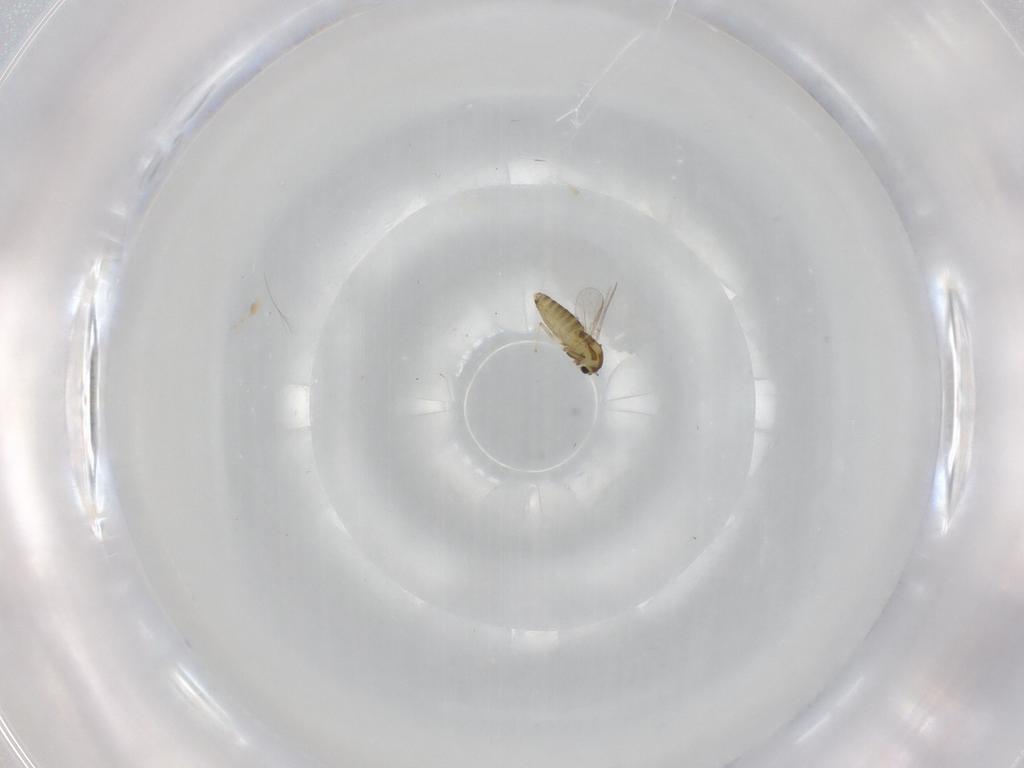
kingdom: Animalia
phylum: Arthropoda
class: Insecta
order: Diptera
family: Chironomidae
